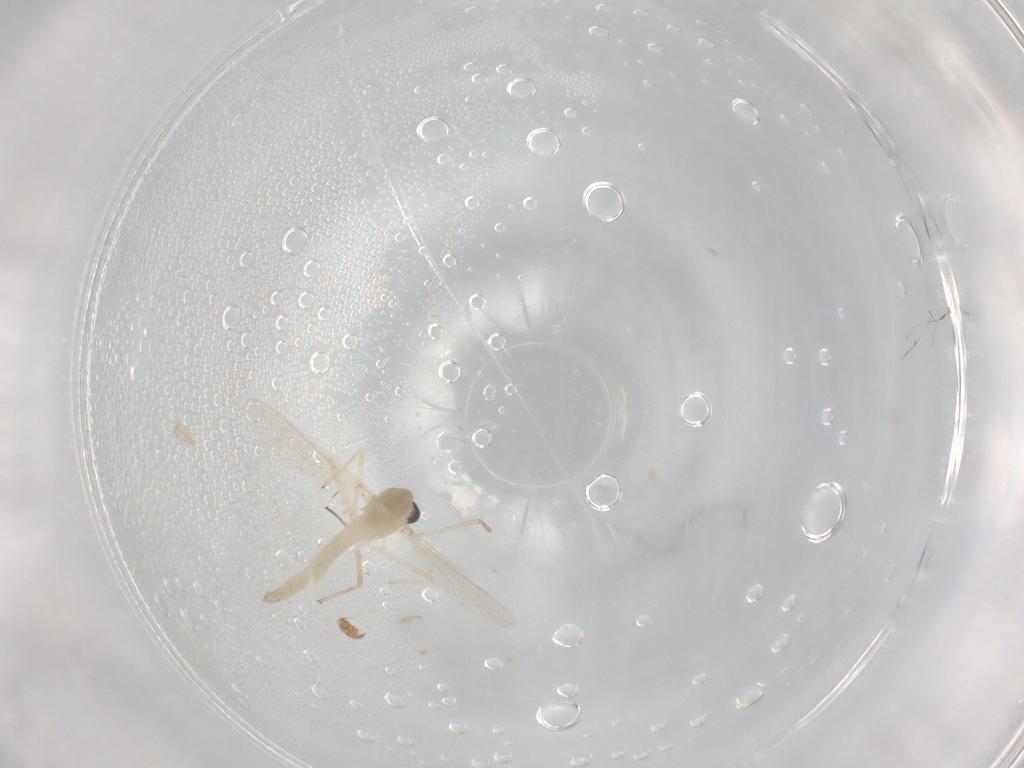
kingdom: Animalia
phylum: Arthropoda
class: Insecta
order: Diptera
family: Chironomidae
